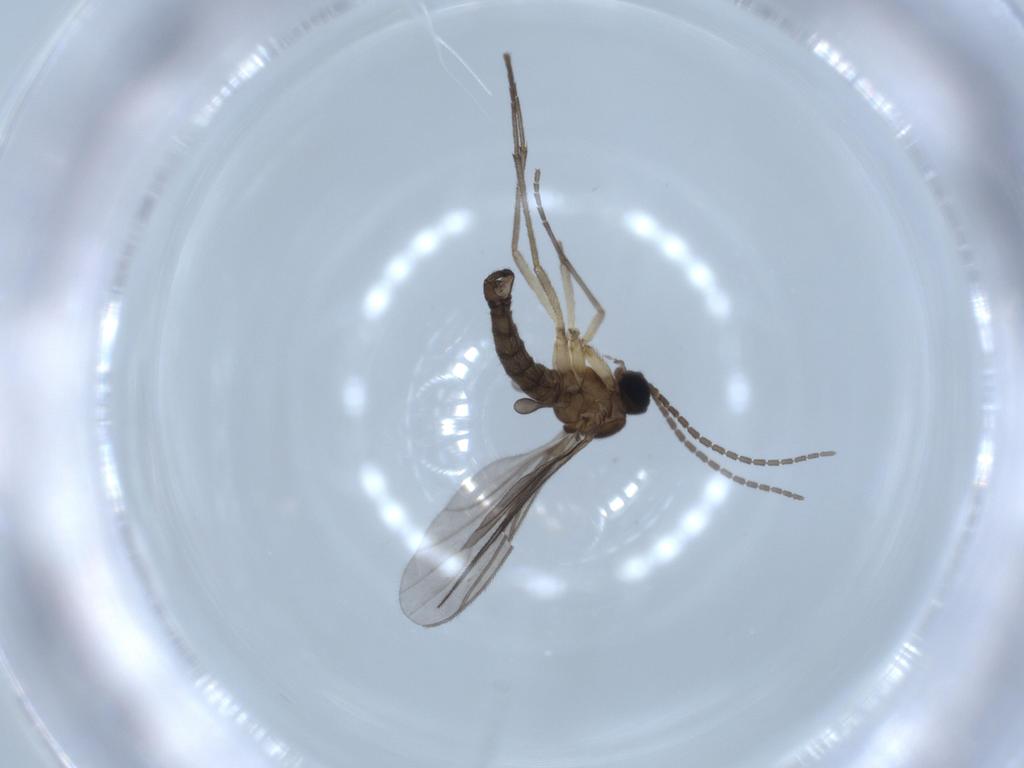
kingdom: Animalia
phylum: Arthropoda
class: Insecta
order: Diptera
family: Sciaridae
